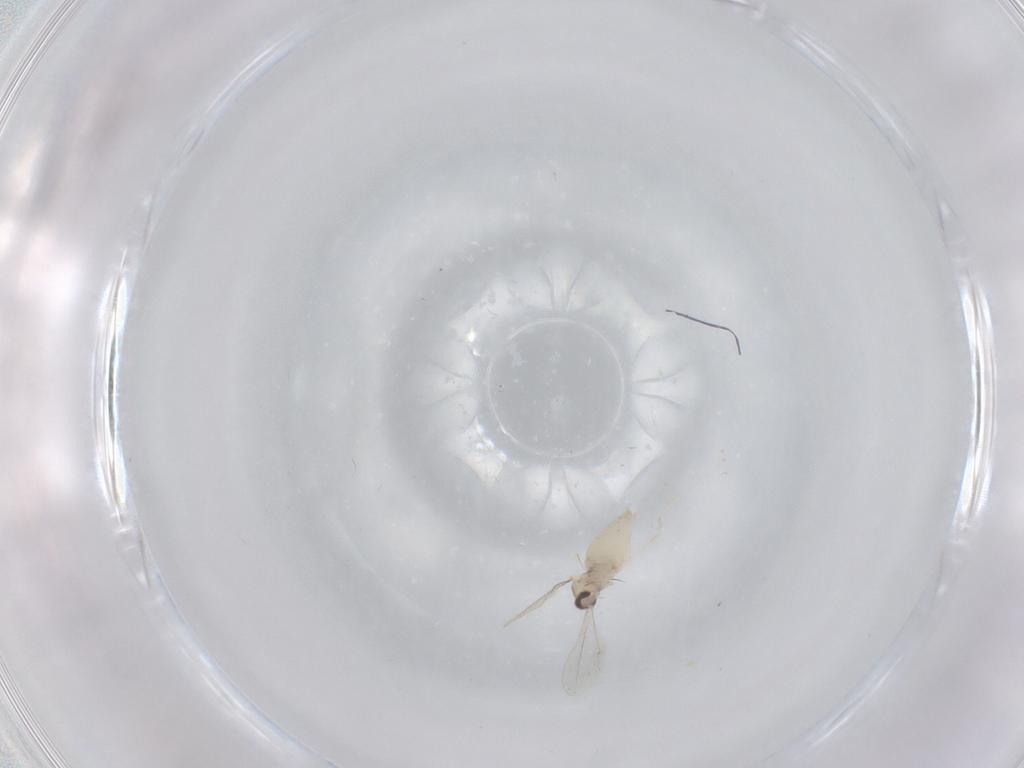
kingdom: Animalia
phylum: Arthropoda
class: Insecta
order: Diptera
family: Cecidomyiidae
